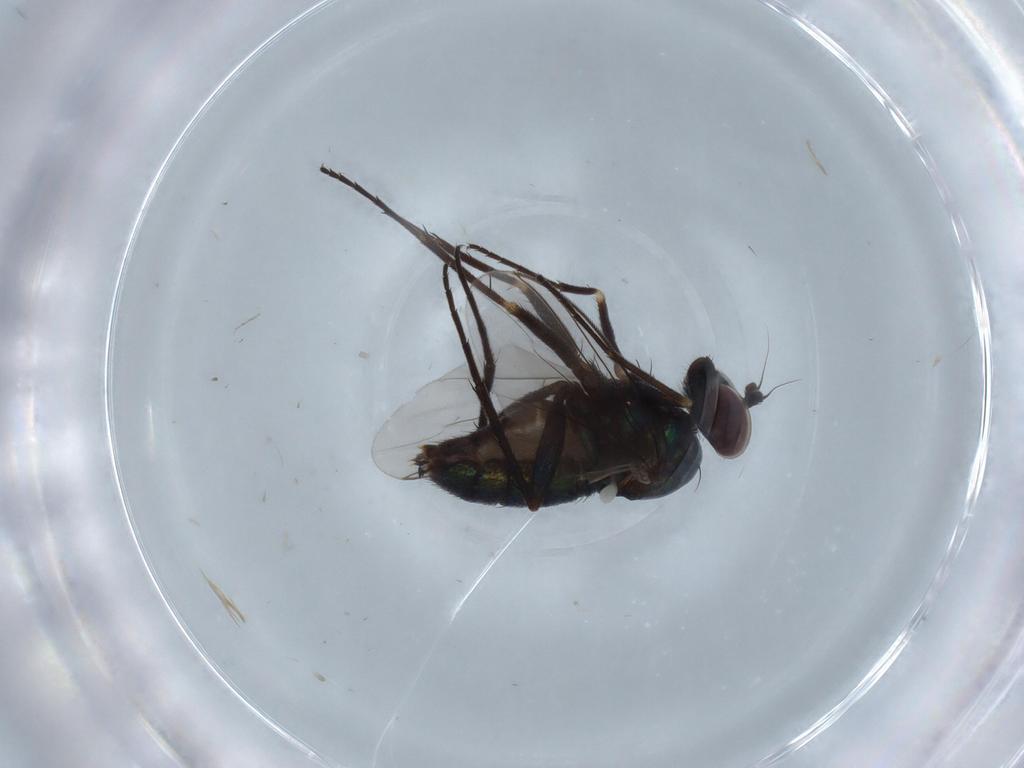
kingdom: Animalia
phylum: Arthropoda
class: Insecta
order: Diptera
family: Dolichopodidae
